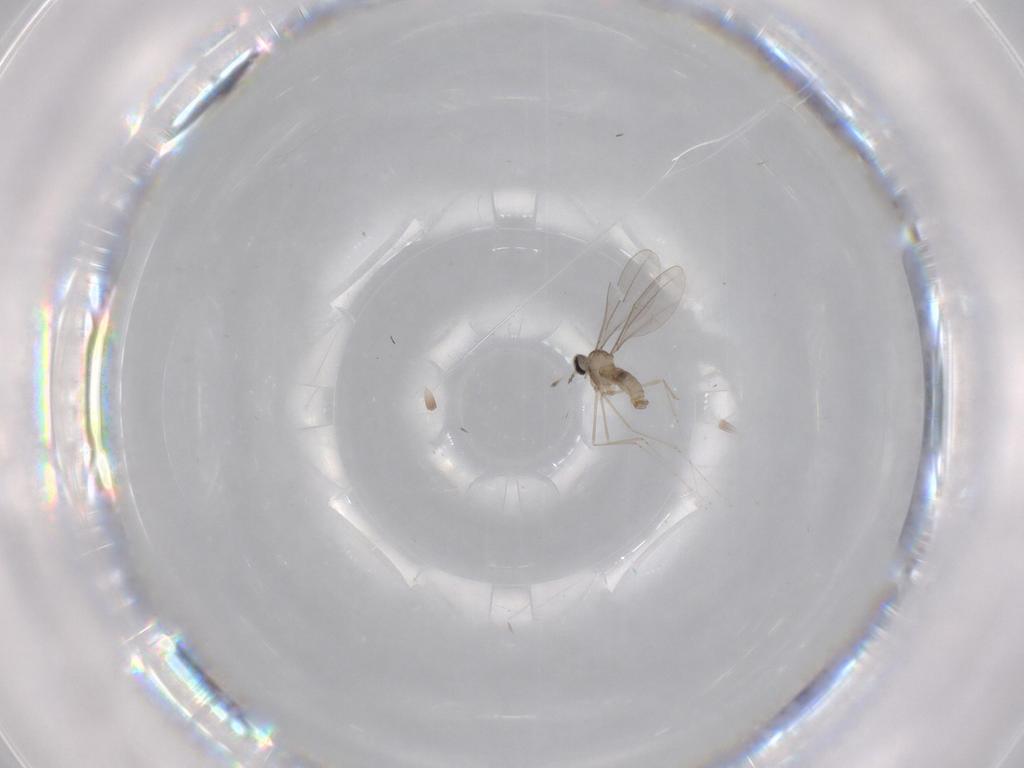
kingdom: Animalia
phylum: Arthropoda
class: Insecta
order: Diptera
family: Cecidomyiidae
